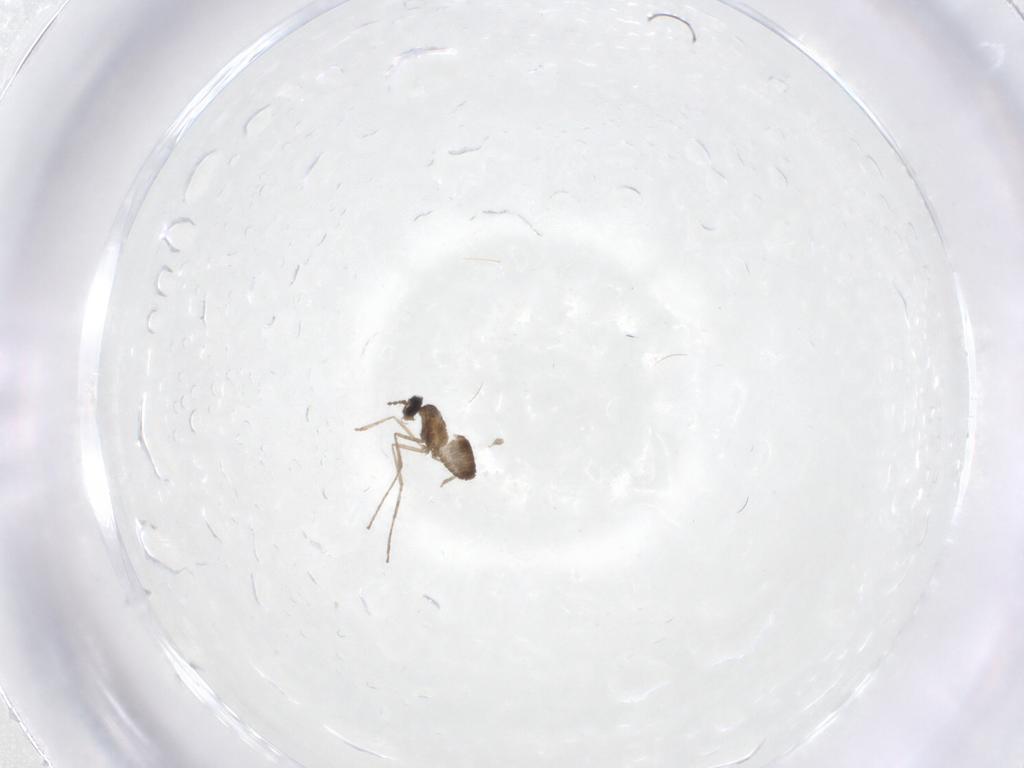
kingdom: Animalia
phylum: Arthropoda
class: Insecta
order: Diptera
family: Cecidomyiidae
